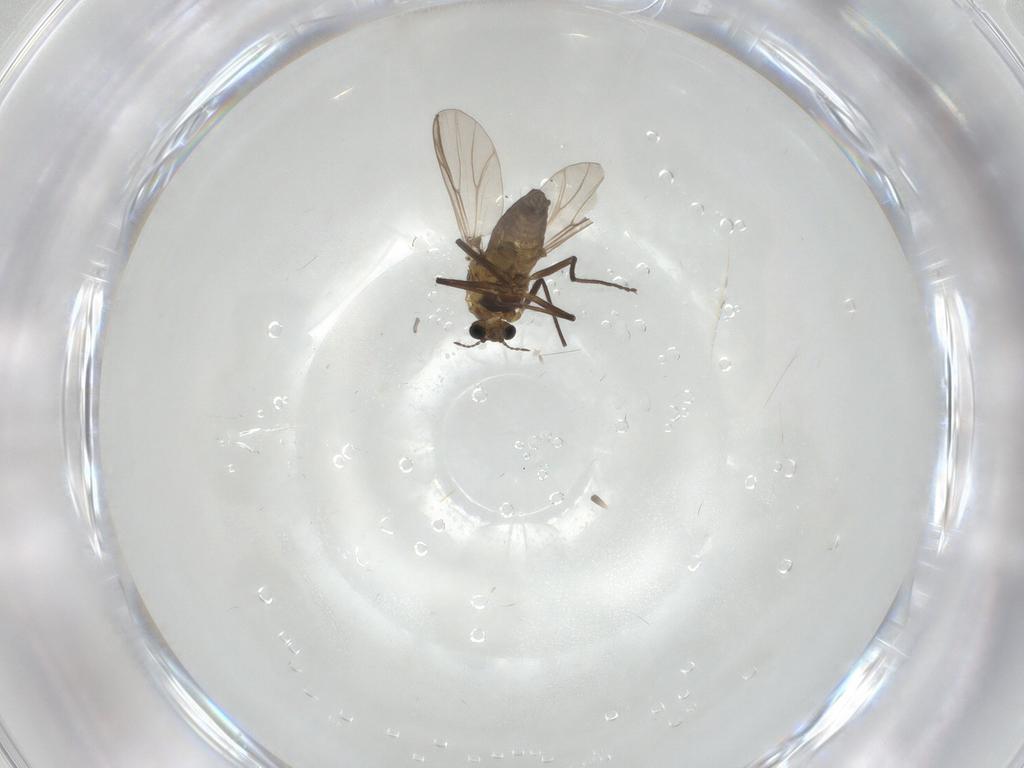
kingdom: Animalia
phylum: Arthropoda
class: Insecta
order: Diptera
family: Chironomidae
